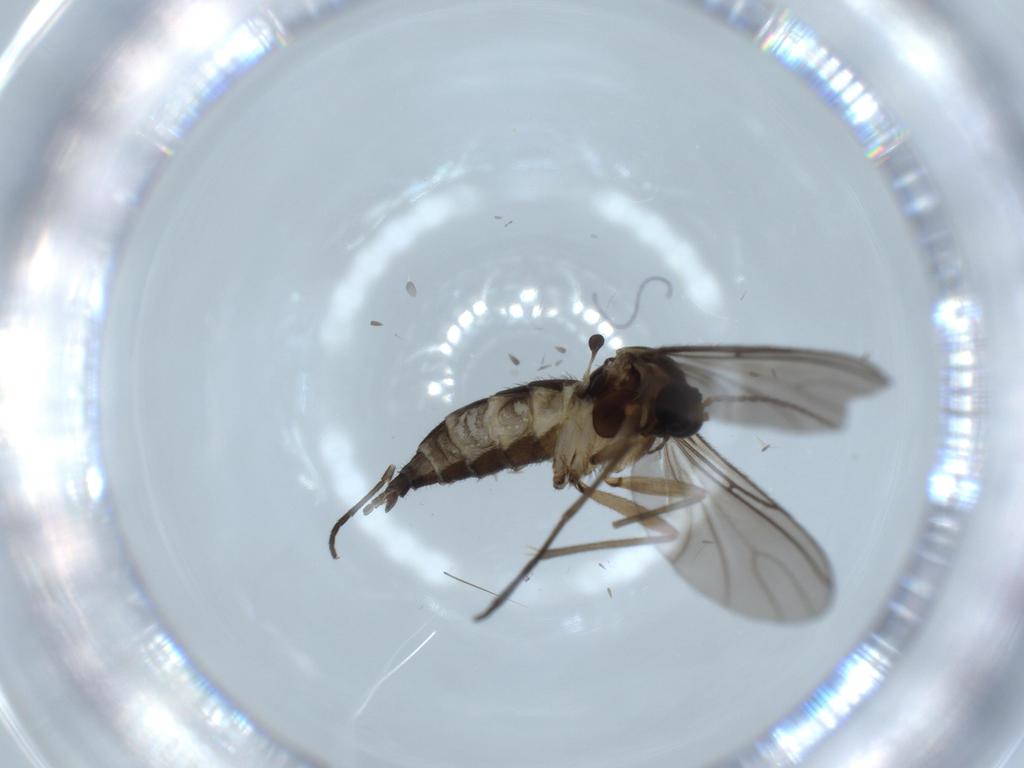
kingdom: Animalia
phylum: Arthropoda
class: Insecta
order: Diptera
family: Sciaridae
